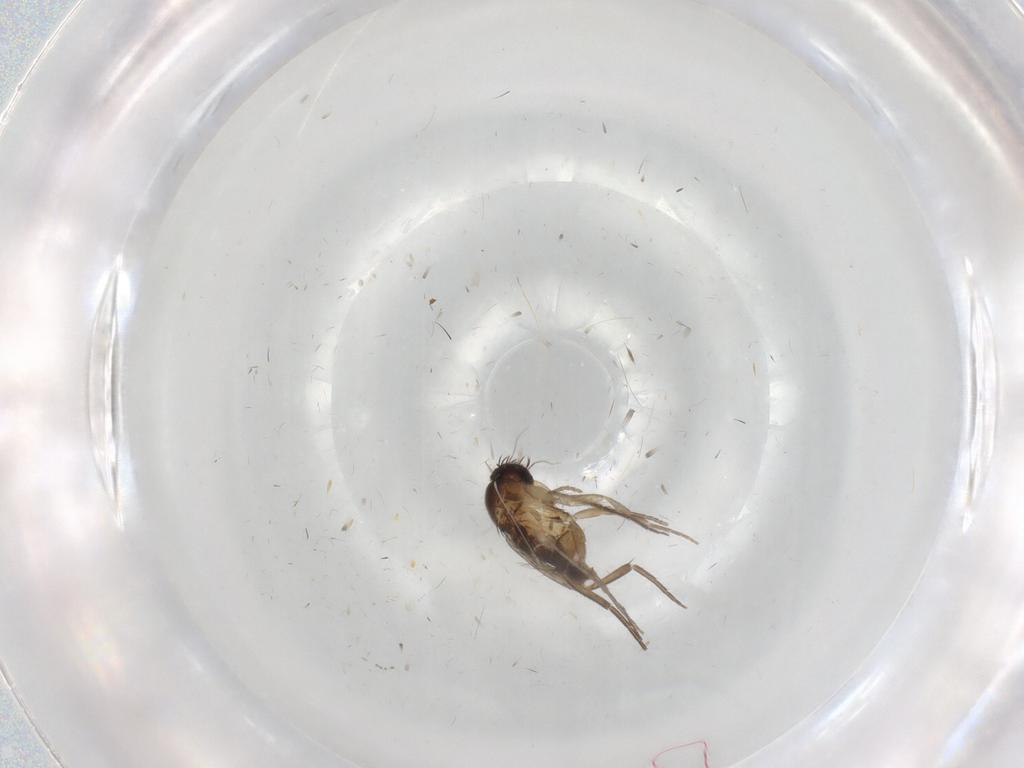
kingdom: Animalia
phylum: Arthropoda
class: Insecta
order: Diptera
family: Phoridae
